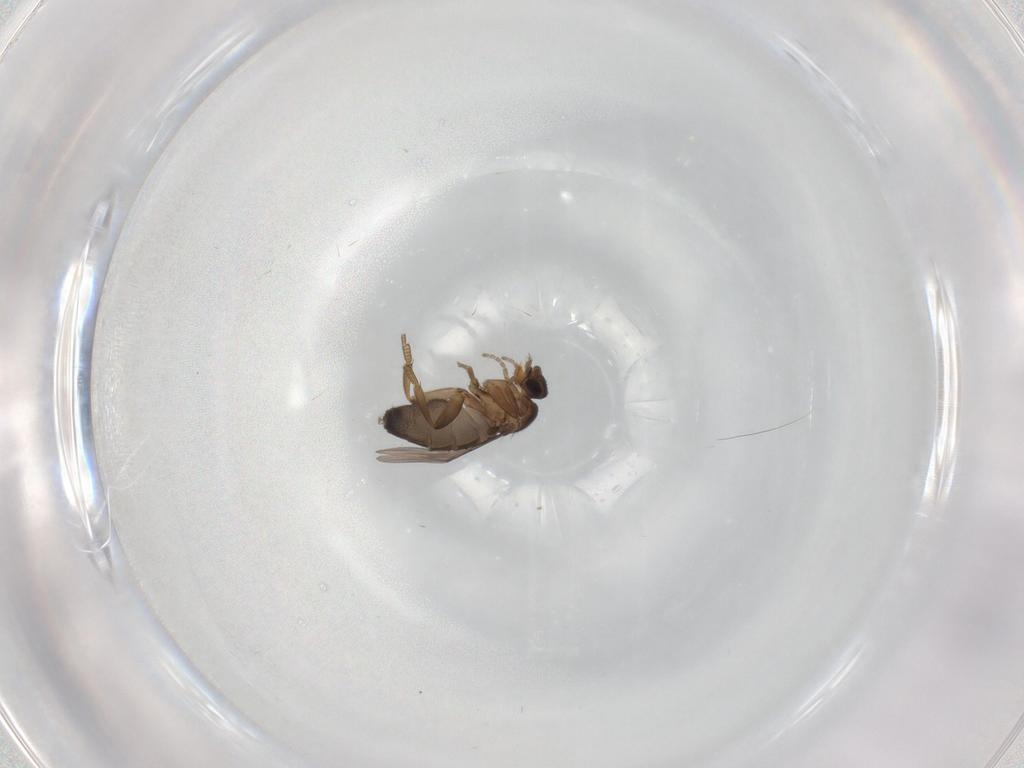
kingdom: Animalia
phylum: Arthropoda
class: Insecta
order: Diptera
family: Phoridae
